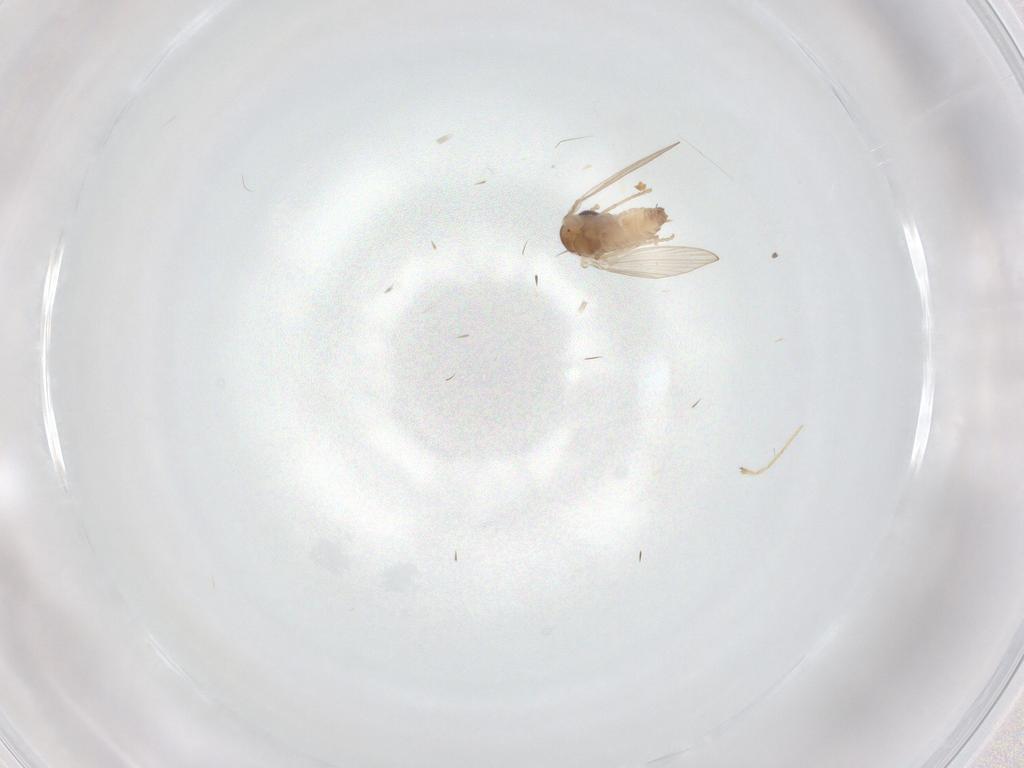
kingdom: Animalia
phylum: Arthropoda
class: Insecta
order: Diptera
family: Psychodidae
